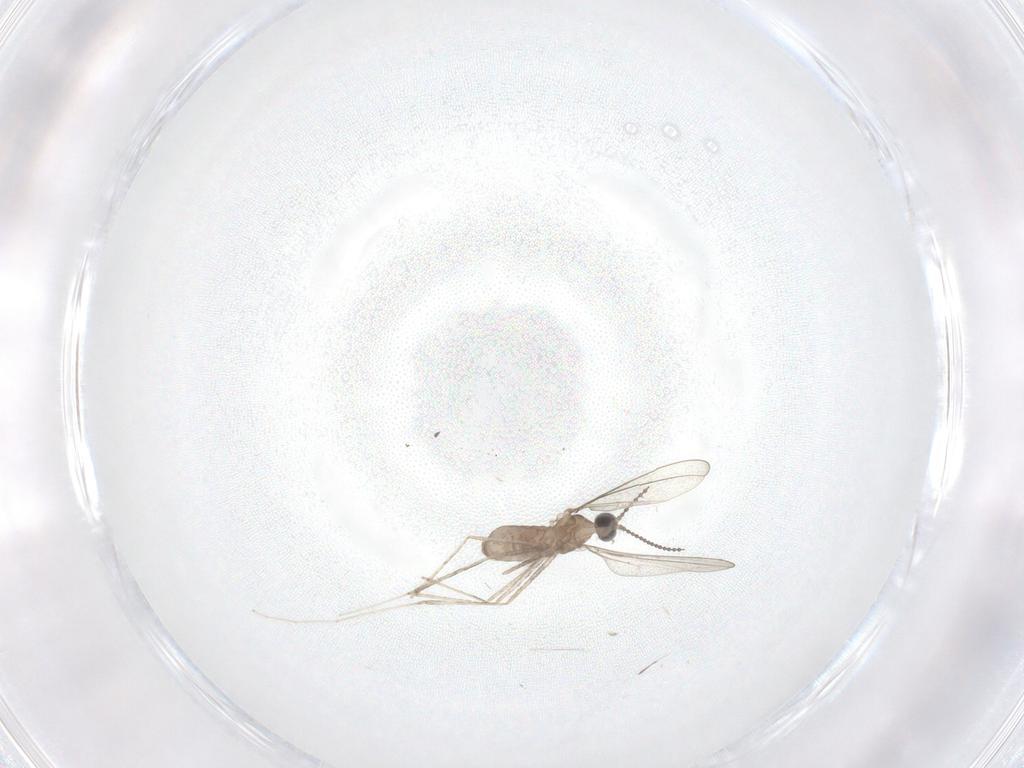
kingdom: Animalia
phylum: Arthropoda
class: Insecta
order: Diptera
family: Cecidomyiidae
